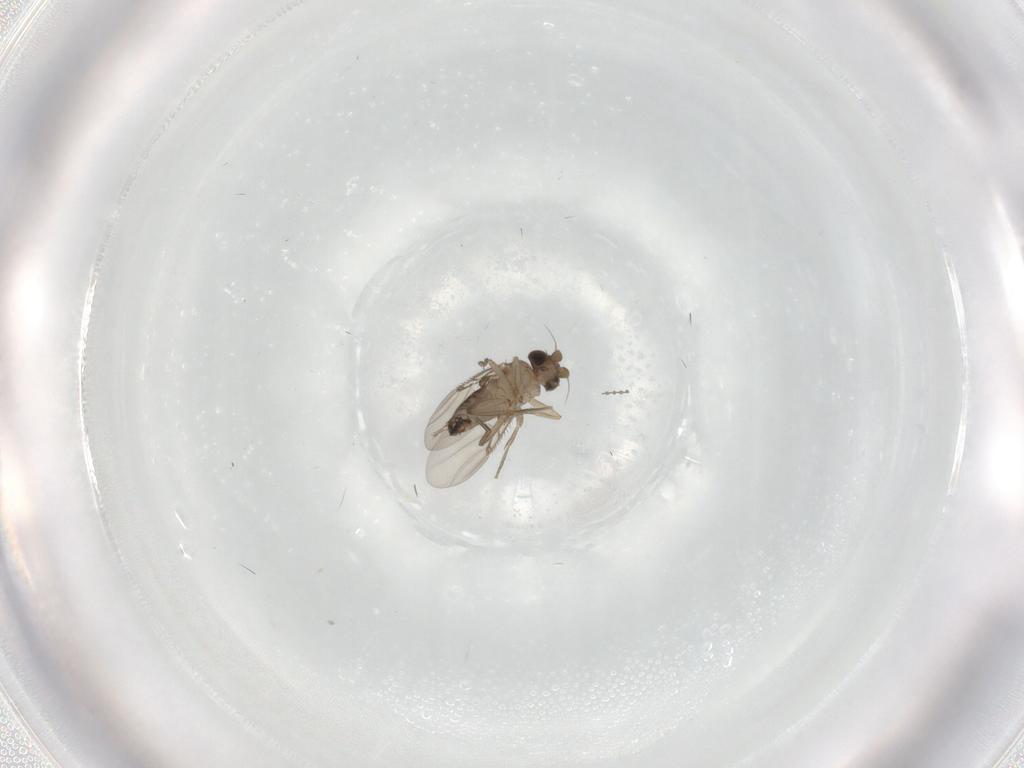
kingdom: Animalia
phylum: Arthropoda
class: Insecta
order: Diptera
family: Phoridae
